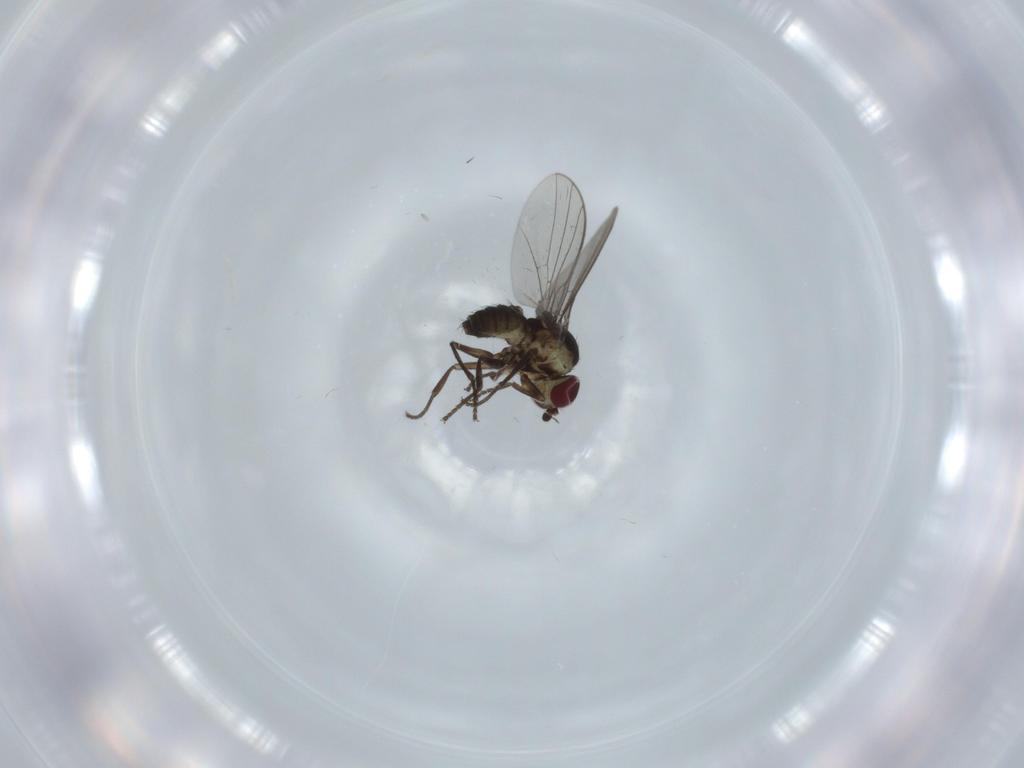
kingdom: Animalia
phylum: Arthropoda
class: Insecta
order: Diptera
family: Agromyzidae
